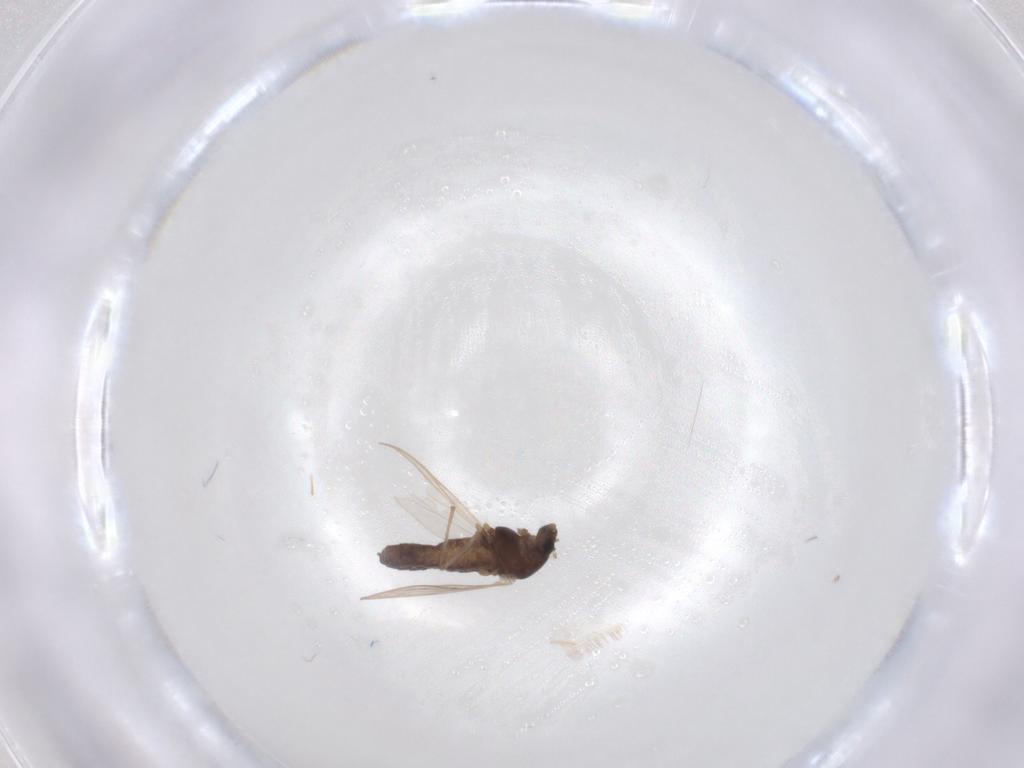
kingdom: Animalia
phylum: Arthropoda
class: Insecta
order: Diptera
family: Chironomidae
